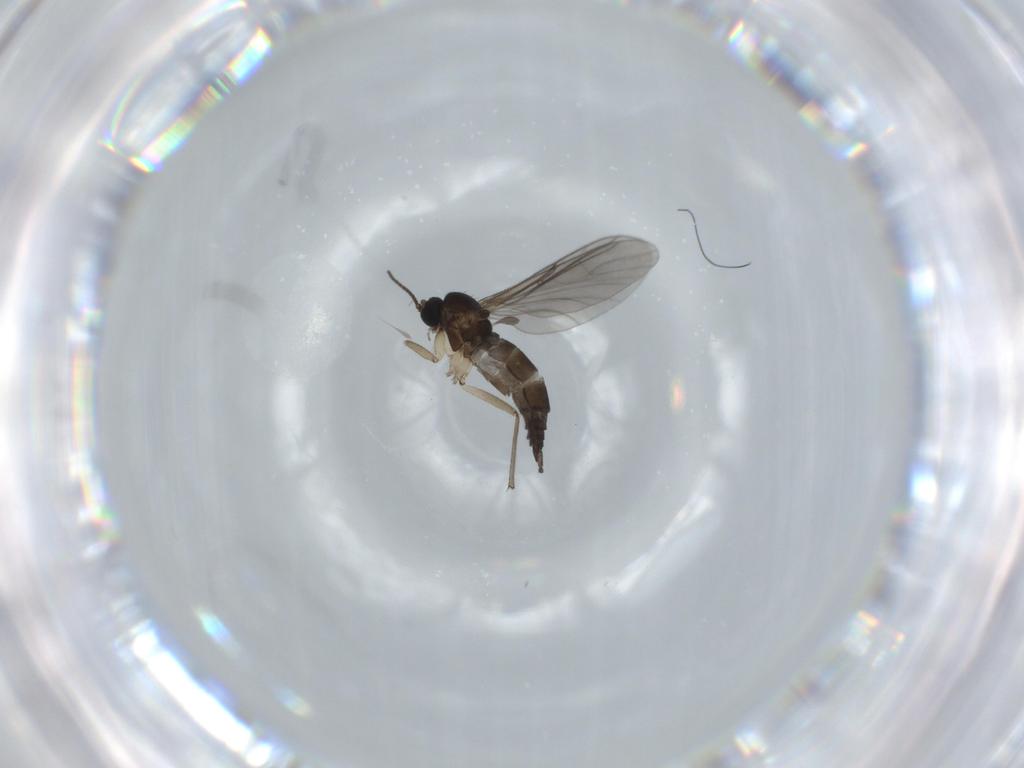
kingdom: Animalia
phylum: Arthropoda
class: Insecta
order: Diptera
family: Sciaridae
